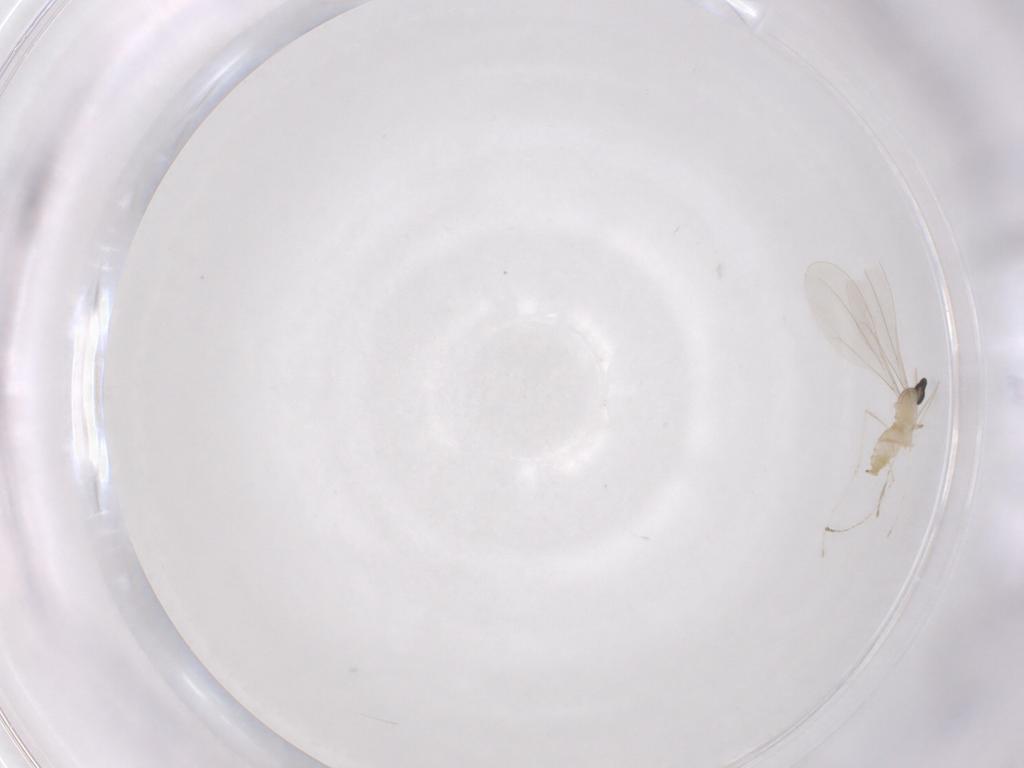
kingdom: Animalia
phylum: Arthropoda
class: Insecta
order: Diptera
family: Cecidomyiidae
